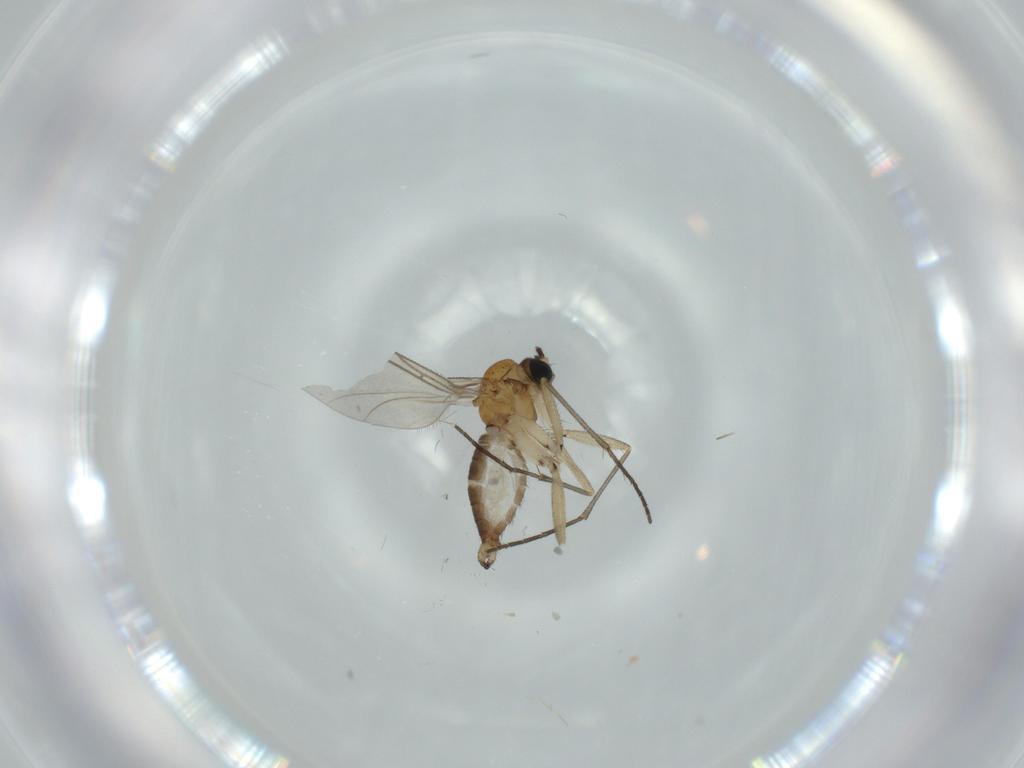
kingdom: Animalia
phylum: Arthropoda
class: Insecta
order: Diptera
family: Sciaridae
